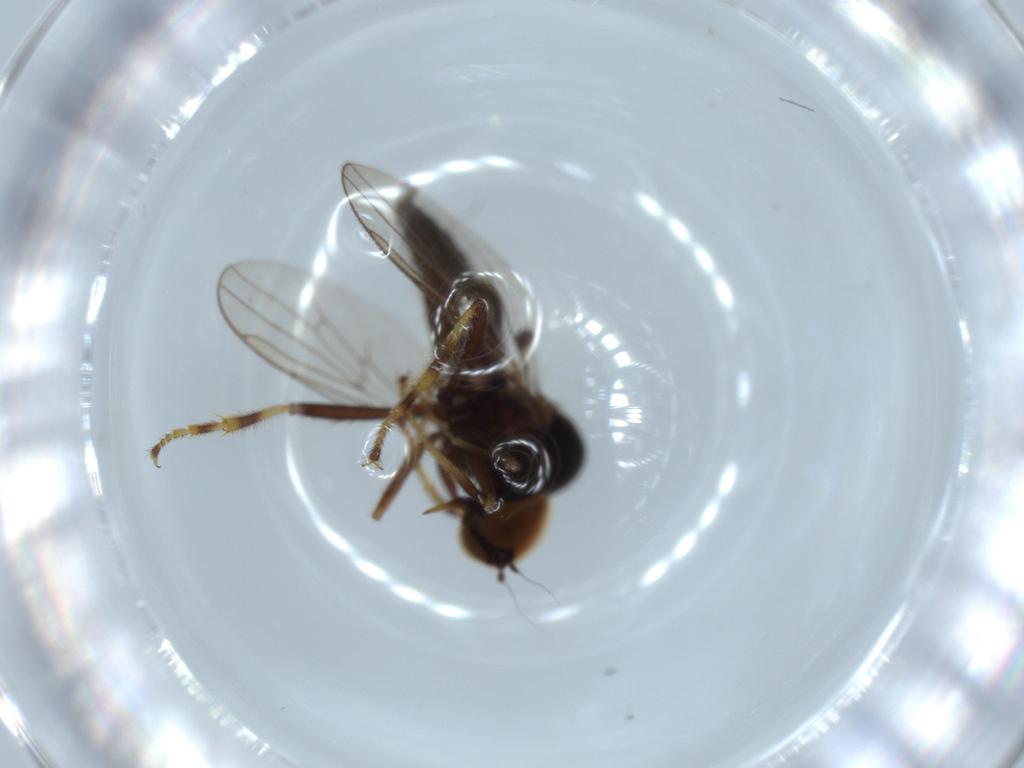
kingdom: Animalia
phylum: Arthropoda
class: Insecta
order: Diptera
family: Hybotidae
